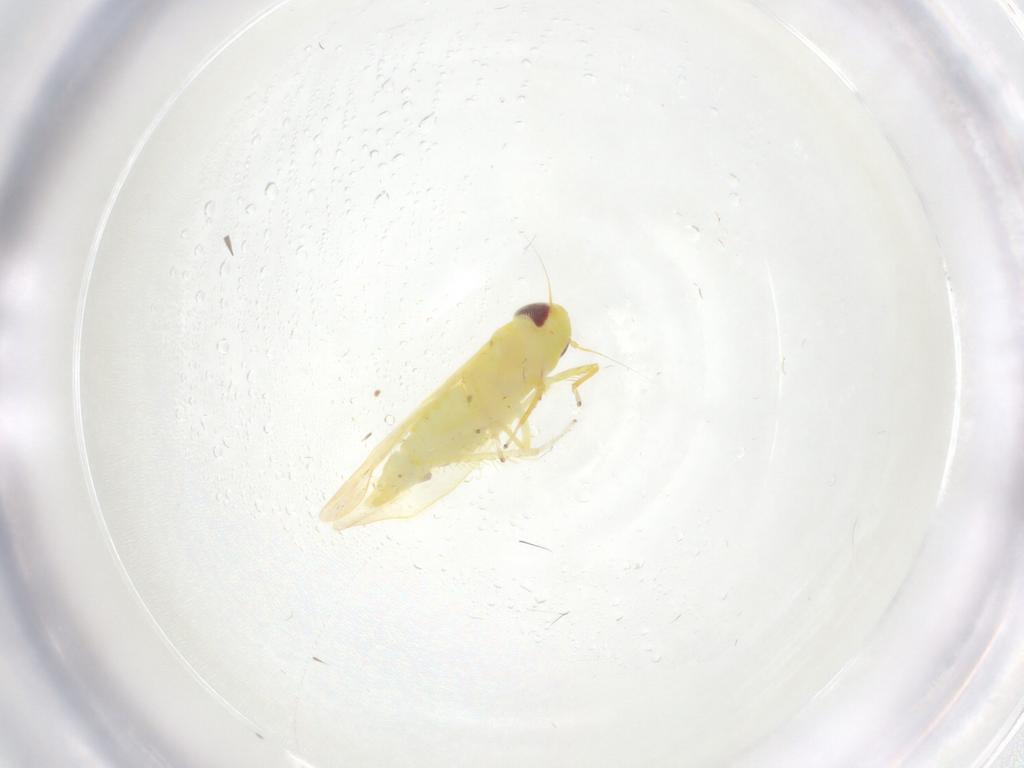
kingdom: Animalia
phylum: Arthropoda
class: Insecta
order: Hemiptera
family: Cicadellidae
